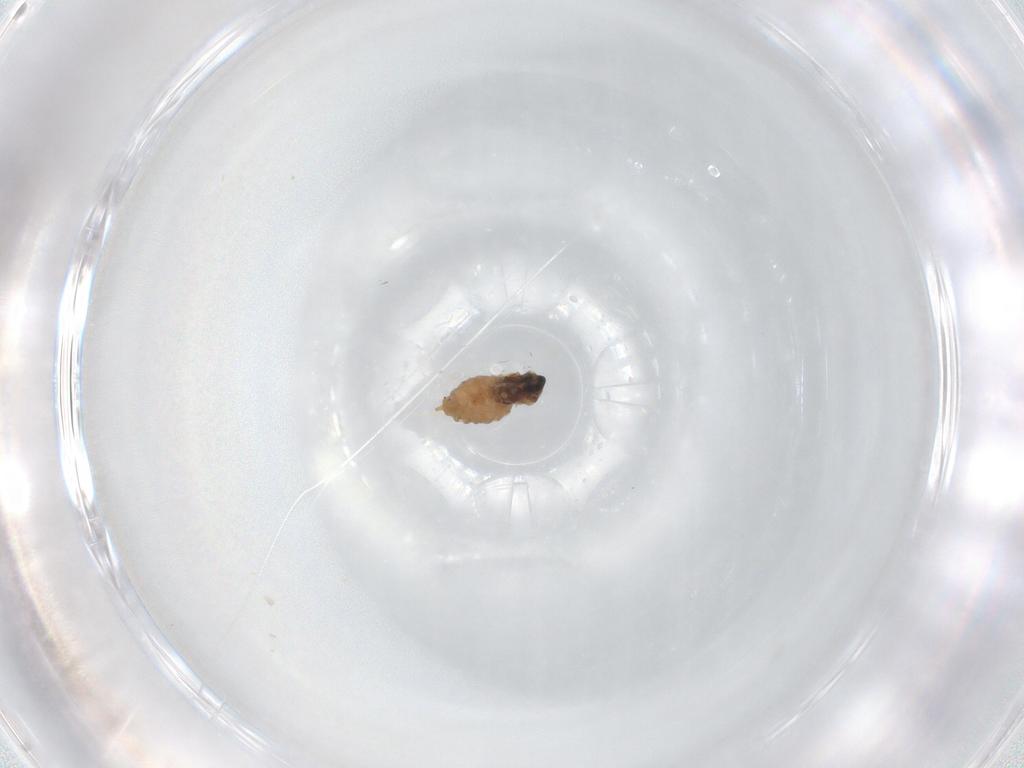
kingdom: Animalia
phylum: Arthropoda
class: Insecta
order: Diptera
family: Cecidomyiidae
